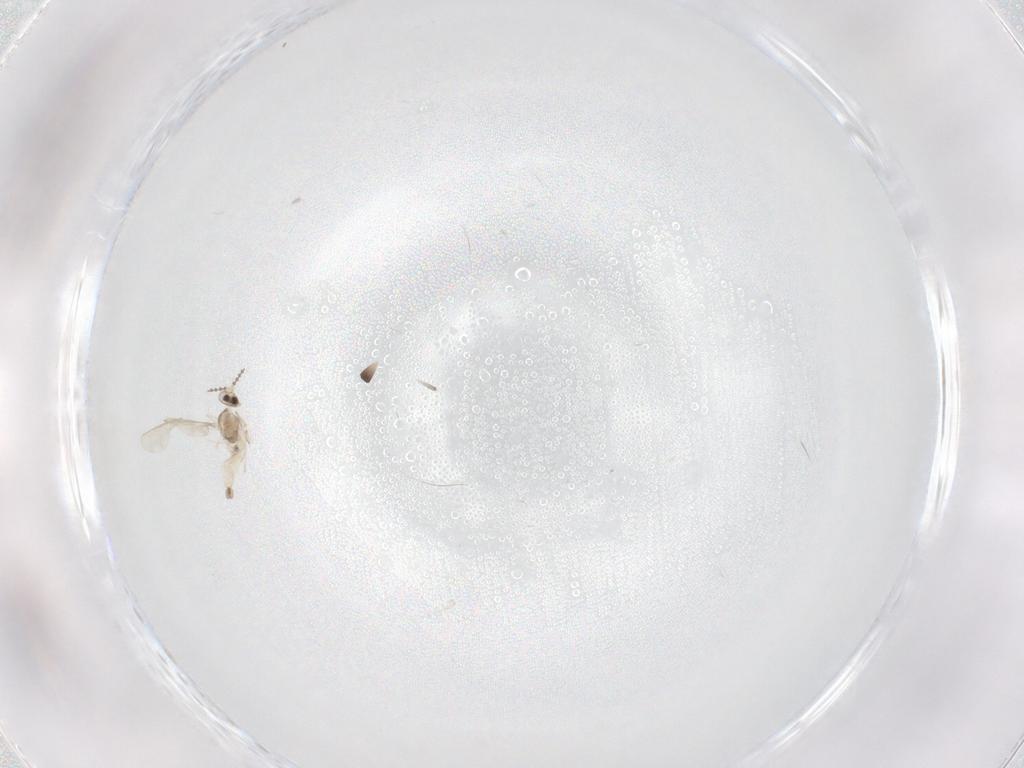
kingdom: Animalia
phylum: Arthropoda
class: Insecta
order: Diptera
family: Cecidomyiidae
